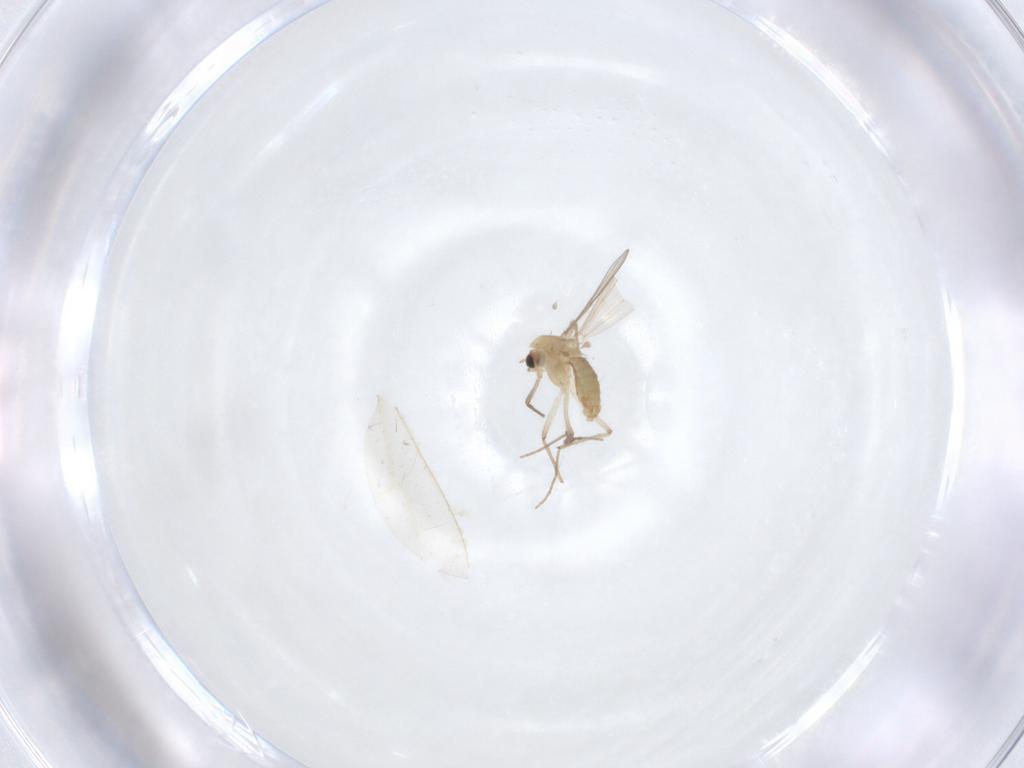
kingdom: Animalia
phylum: Arthropoda
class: Insecta
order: Diptera
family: Cecidomyiidae
